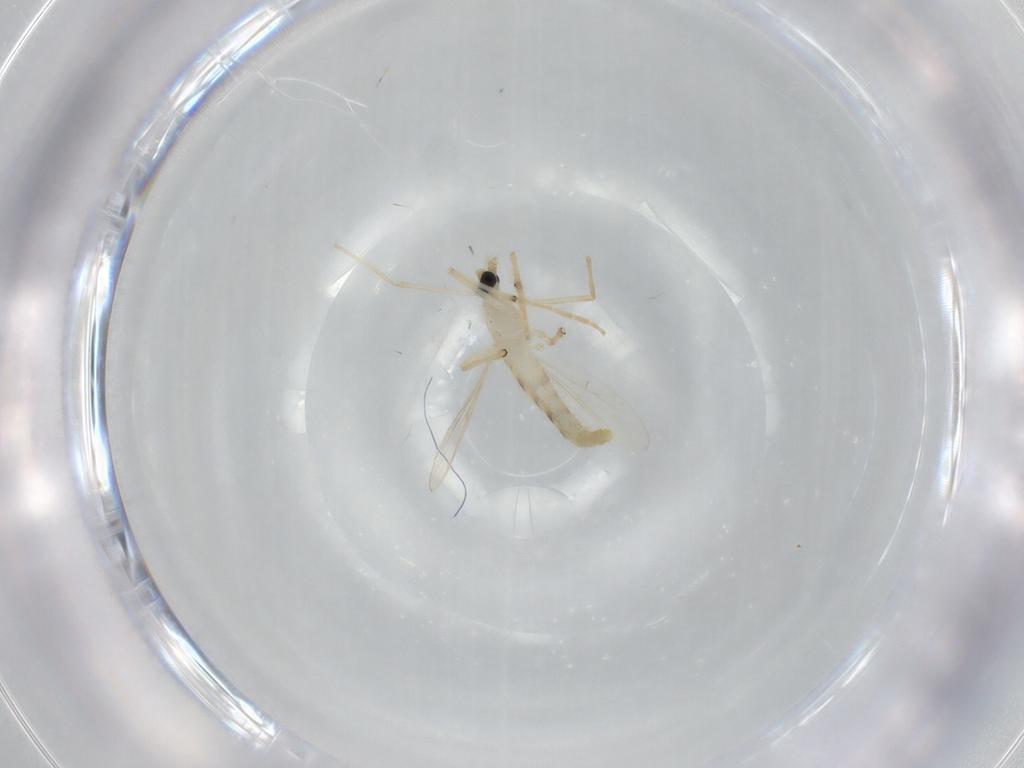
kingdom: Animalia
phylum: Arthropoda
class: Insecta
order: Diptera
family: Chironomidae
